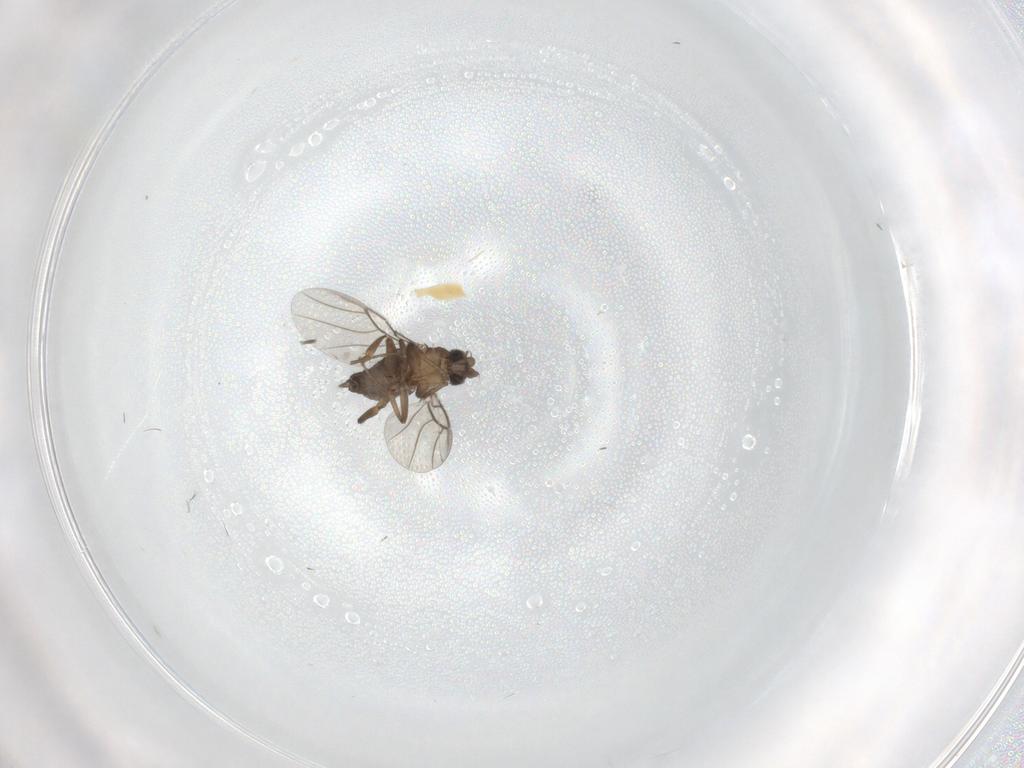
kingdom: Animalia
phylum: Arthropoda
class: Insecta
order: Diptera
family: Phoridae
